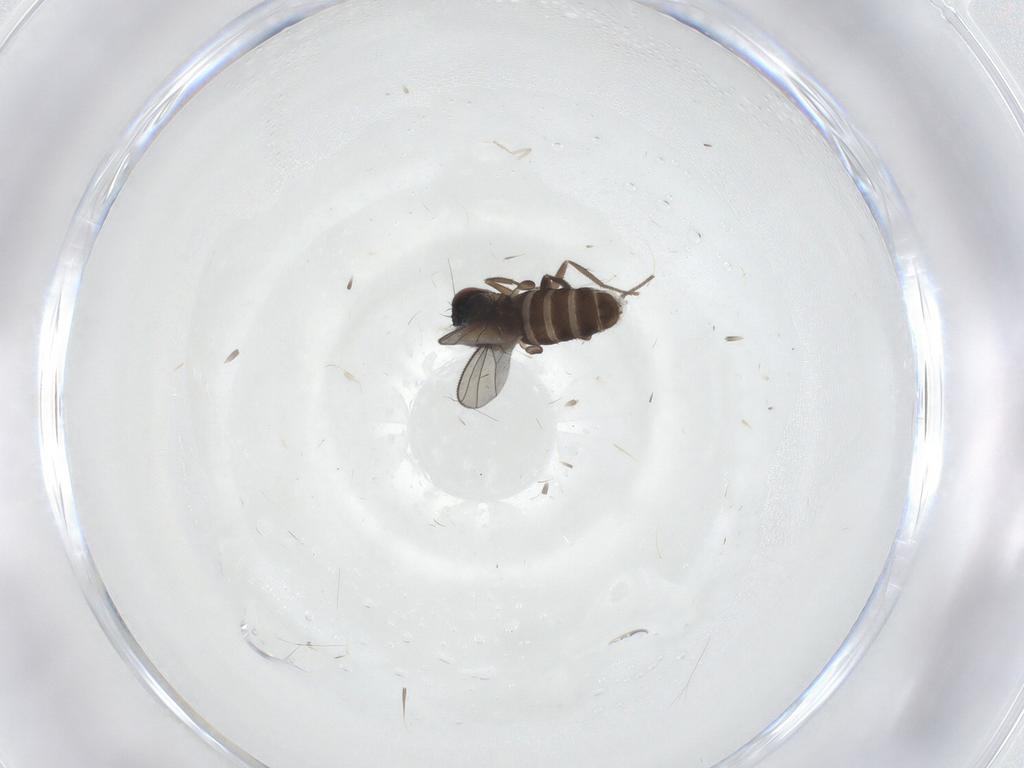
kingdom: Animalia
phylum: Arthropoda
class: Insecta
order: Diptera
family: Dolichopodidae
